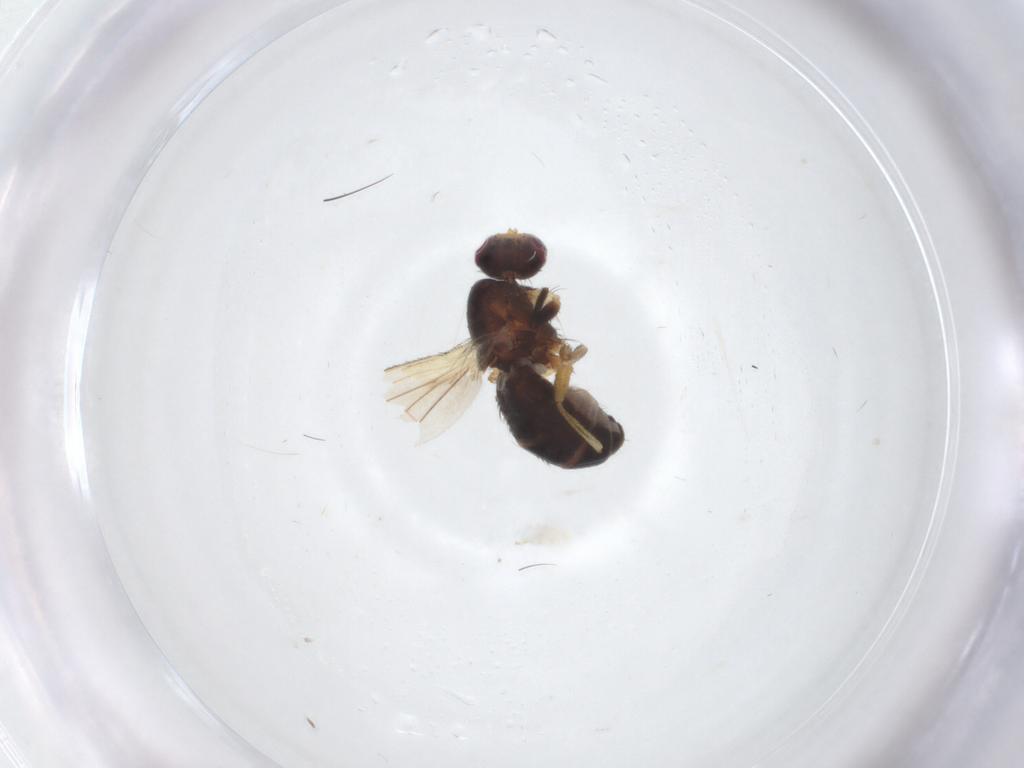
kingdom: Animalia
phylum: Arthropoda
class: Insecta
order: Diptera
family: Heleomyzidae
